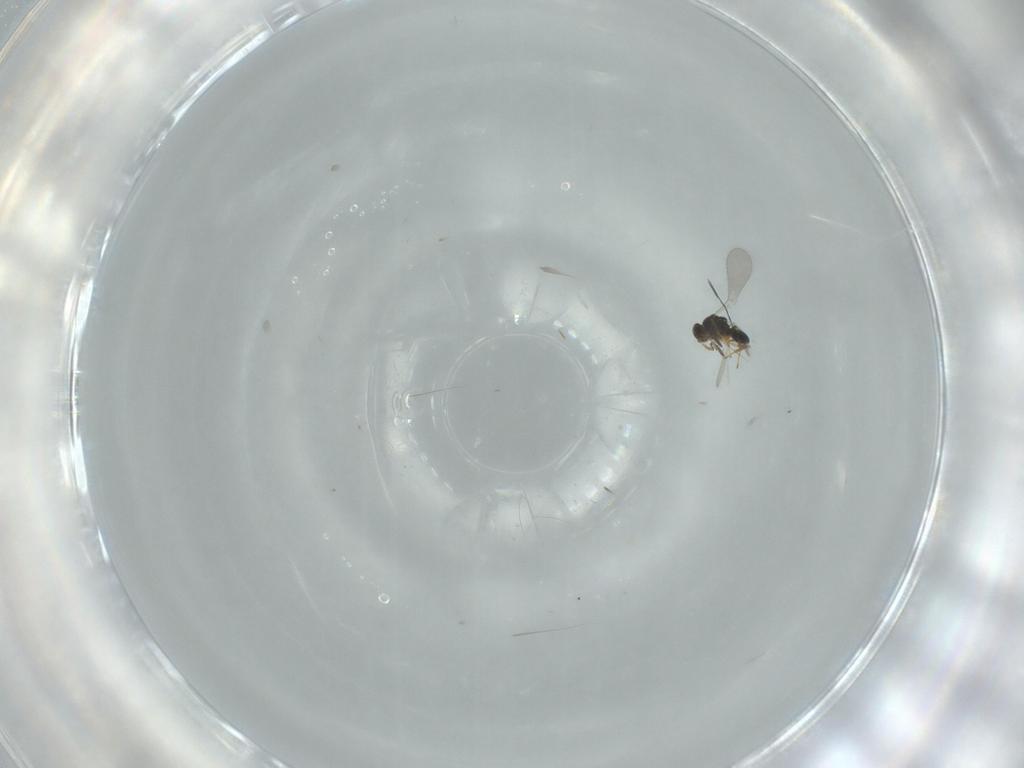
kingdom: Animalia
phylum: Arthropoda
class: Insecta
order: Hymenoptera
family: Platygastridae
